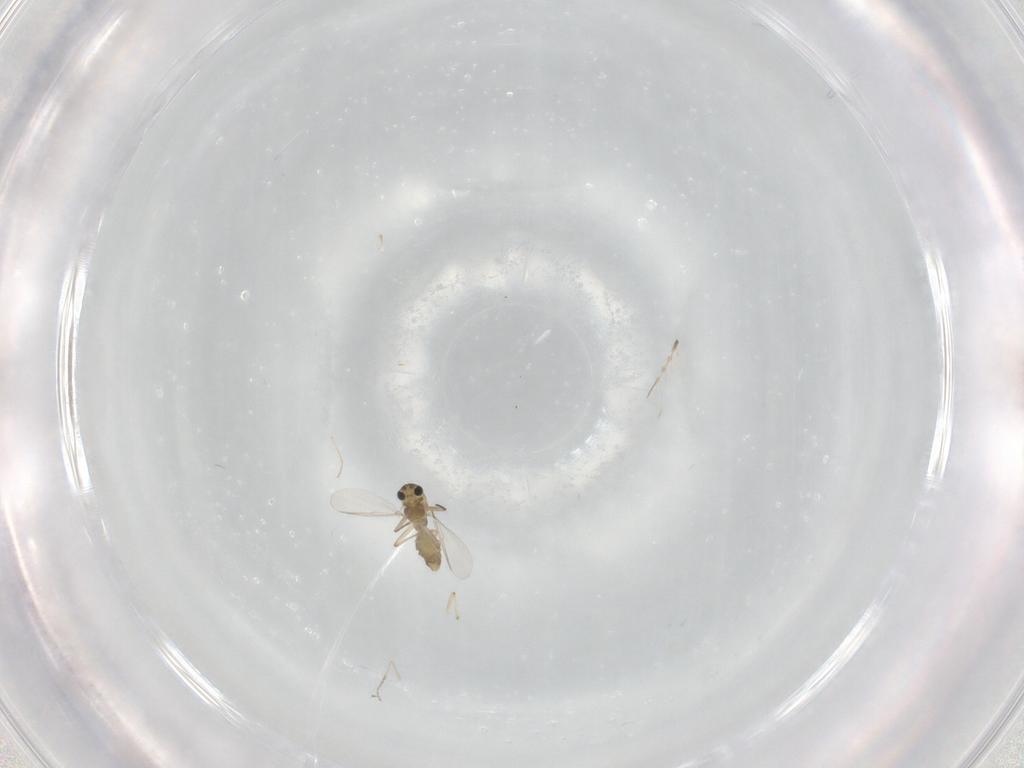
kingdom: Animalia
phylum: Arthropoda
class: Insecta
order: Diptera
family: Chironomidae
